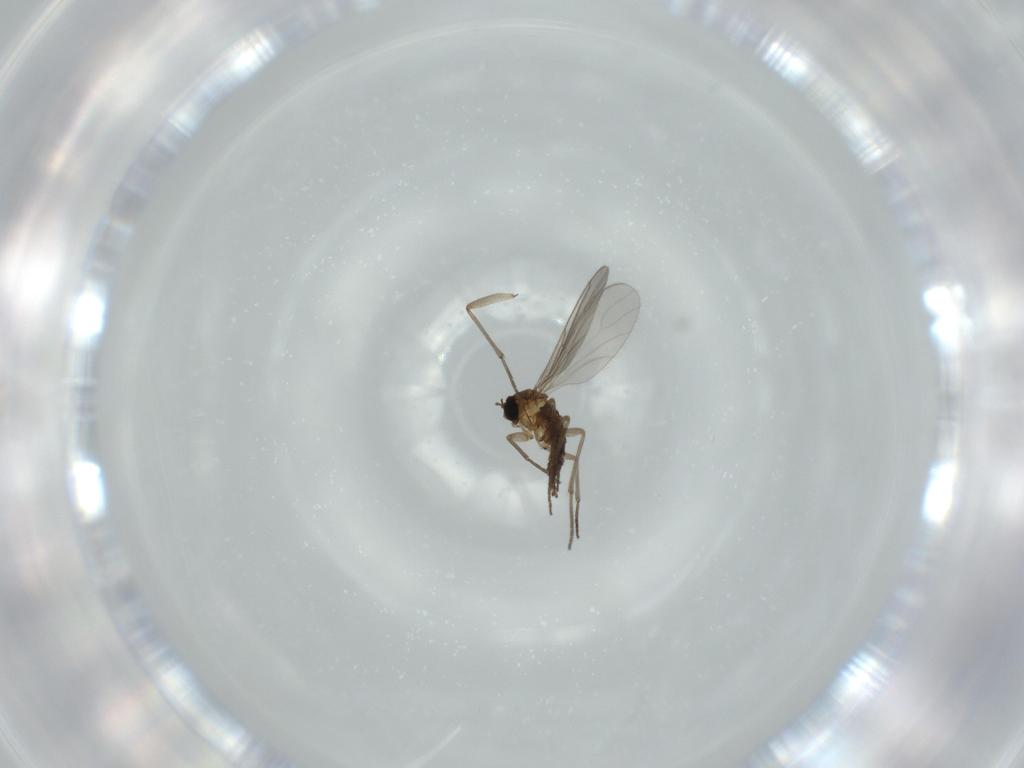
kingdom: Animalia
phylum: Arthropoda
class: Insecta
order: Diptera
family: Sciaridae
